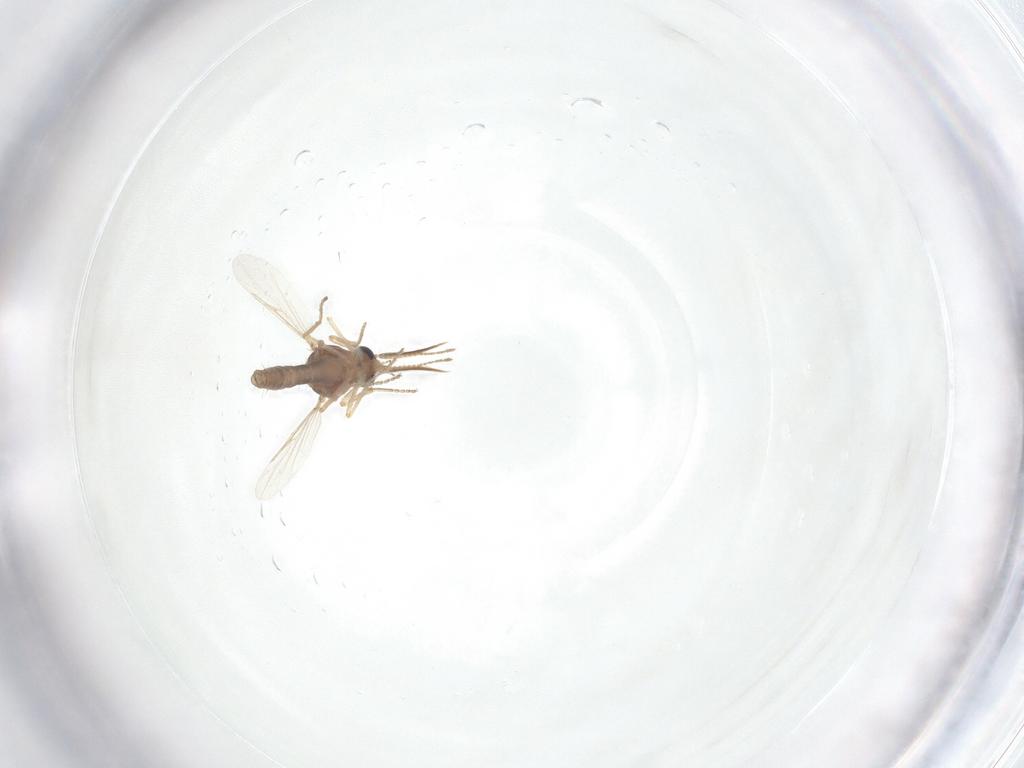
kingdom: Animalia
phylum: Arthropoda
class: Insecta
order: Diptera
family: Ceratopogonidae
